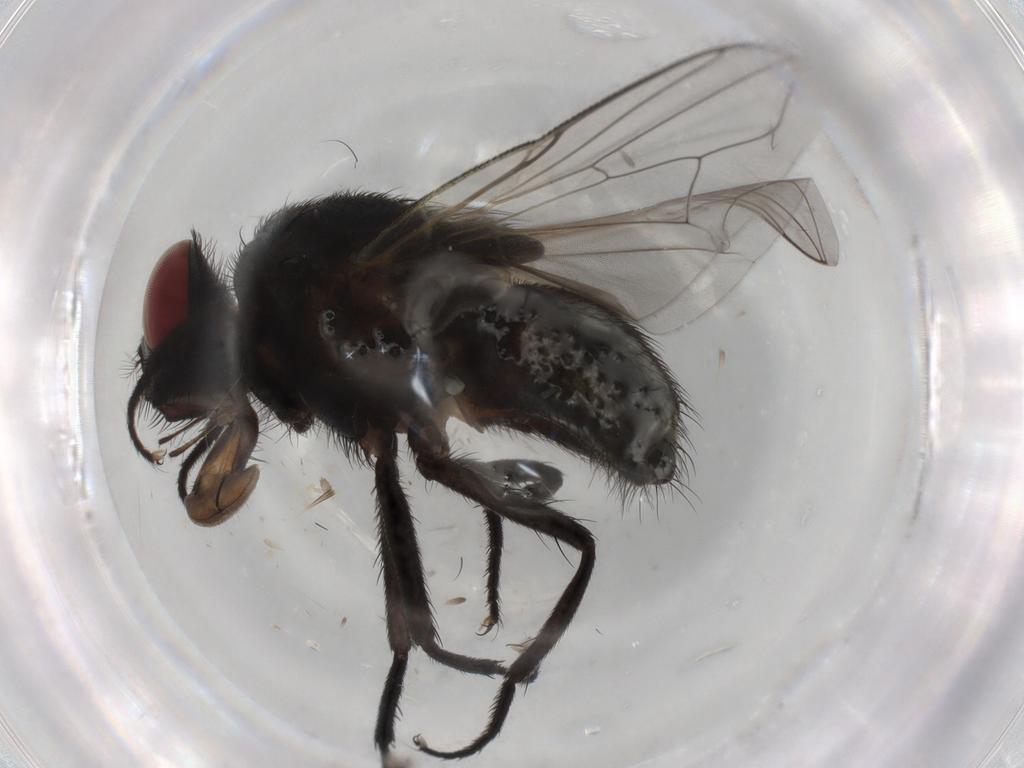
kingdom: Animalia
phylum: Arthropoda
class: Insecta
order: Diptera
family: Muscidae
